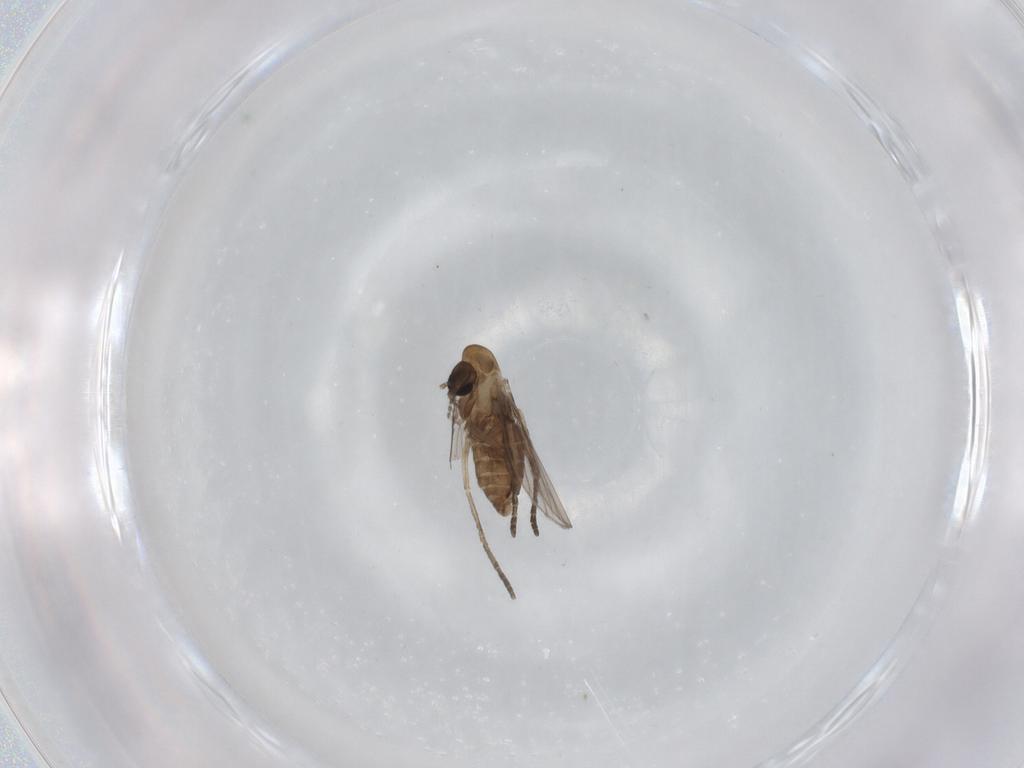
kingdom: Animalia
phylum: Arthropoda
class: Insecta
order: Diptera
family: Psychodidae
